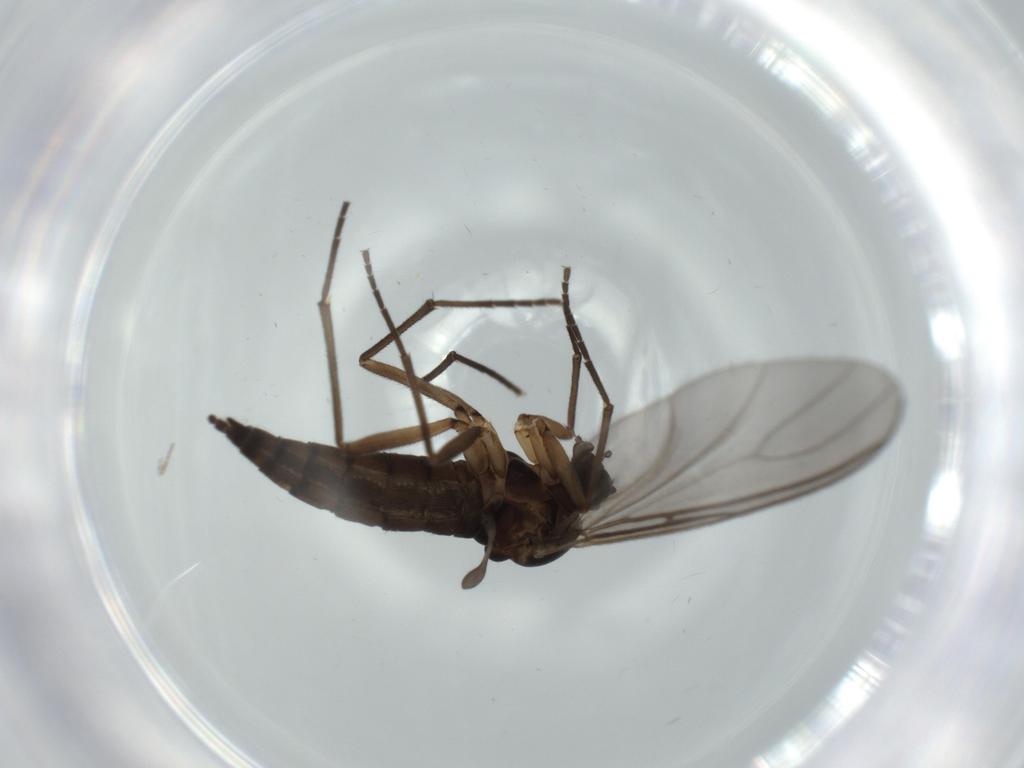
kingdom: Animalia
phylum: Arthropoda
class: Insecta
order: Diptera
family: Sciaridae
